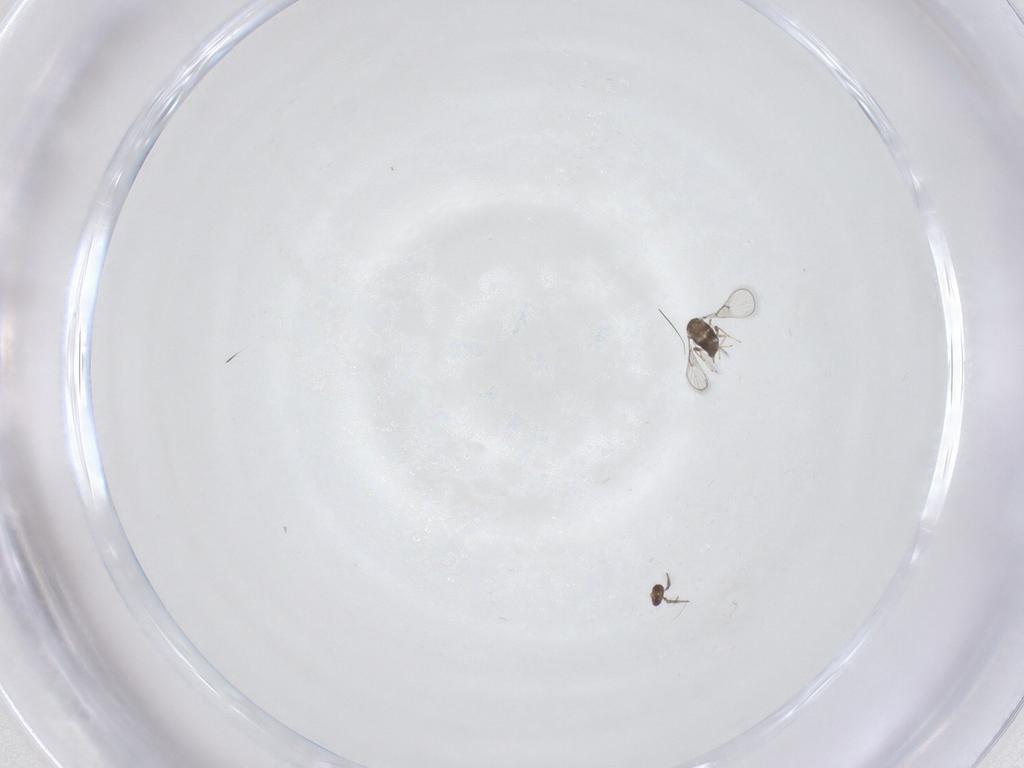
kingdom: Animalia
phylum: Arthropoda
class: Insecta
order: Hymenoptera
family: Trichogrammatidae
